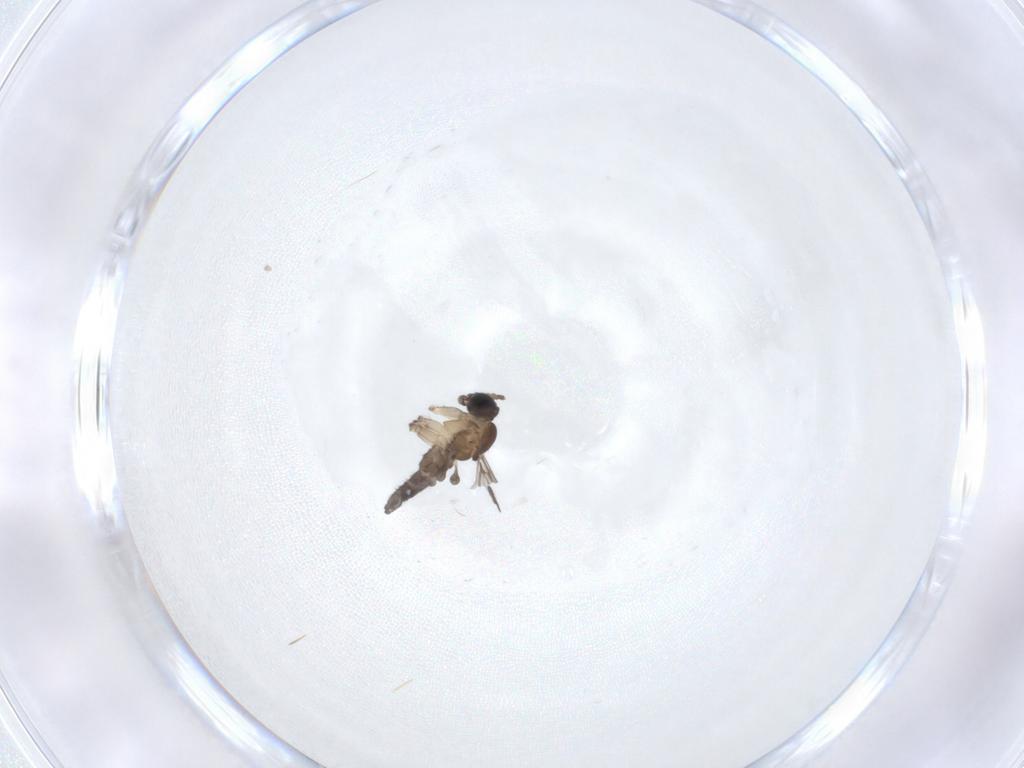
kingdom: Animalia
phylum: Arthropoda
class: Insecta
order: Diptera
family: Sciaridae
